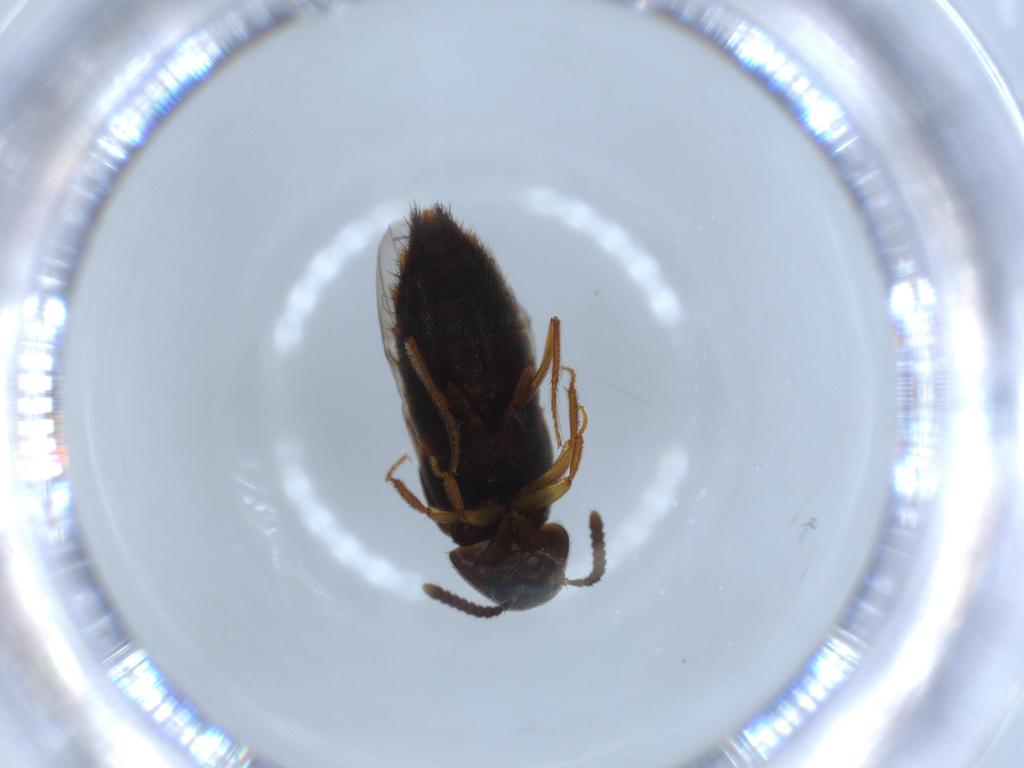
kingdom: Animalia
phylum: Arthropoda
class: Insecta
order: Coleoptera
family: Staphylinidae
